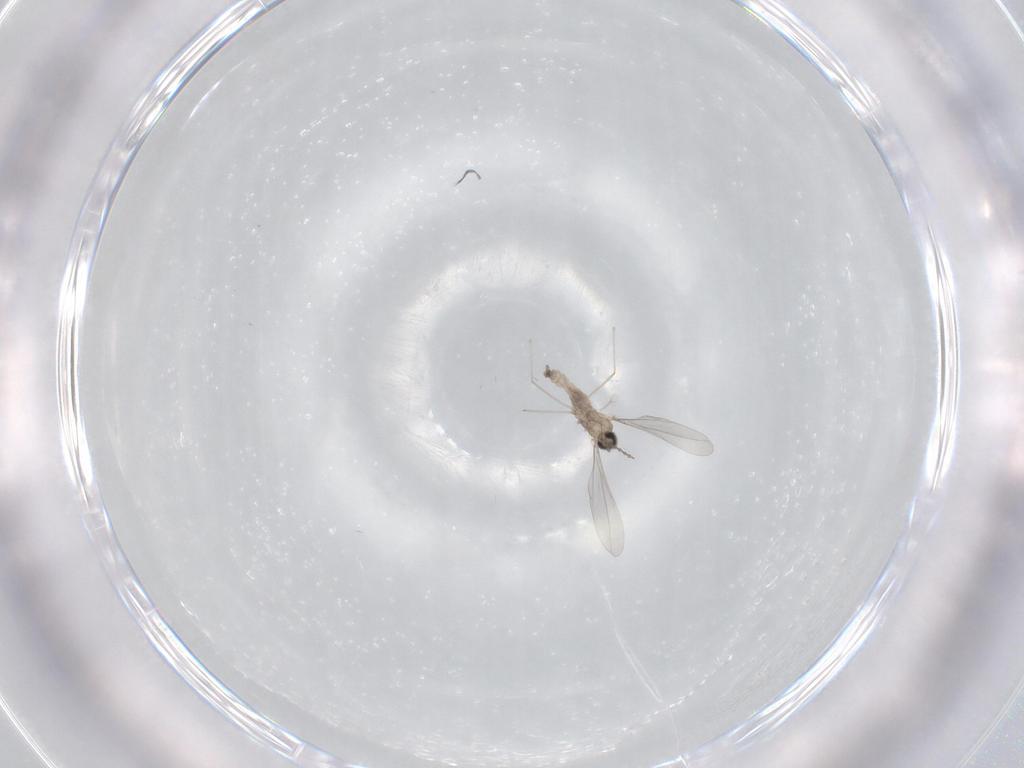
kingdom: Animalia
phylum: Arthropoda
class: Insecta
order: Diptera
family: Cecidomyiidae
